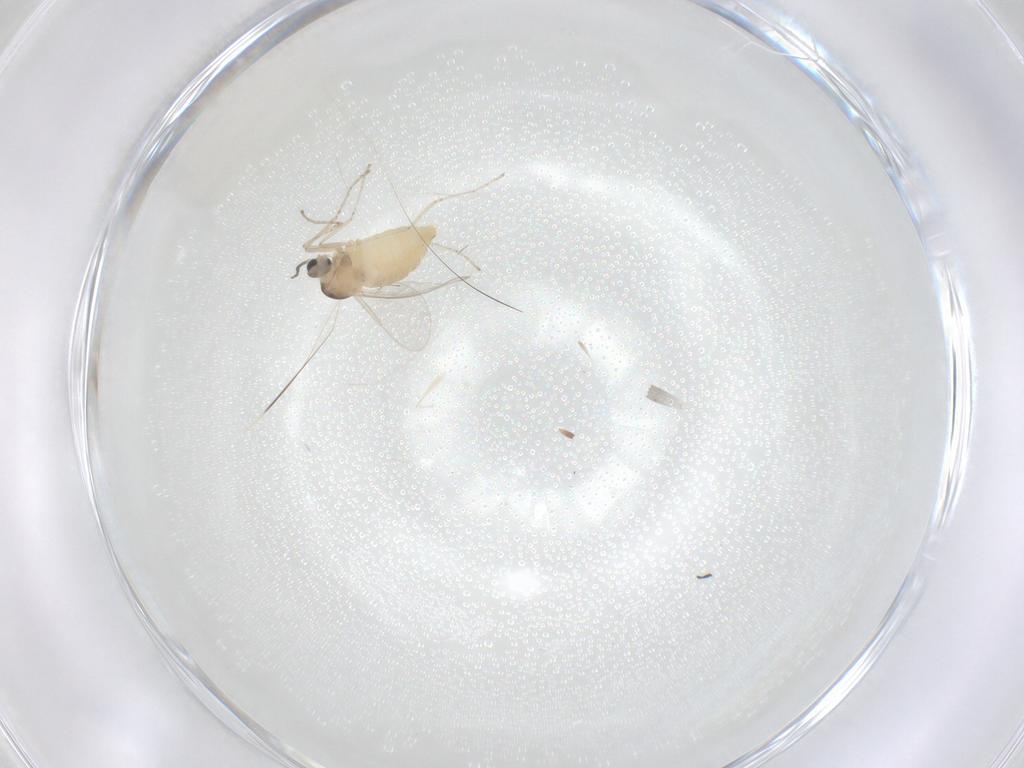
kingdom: Animalia
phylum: Arthropoda
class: Insecta
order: Diptera
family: Cecidomyiidae
